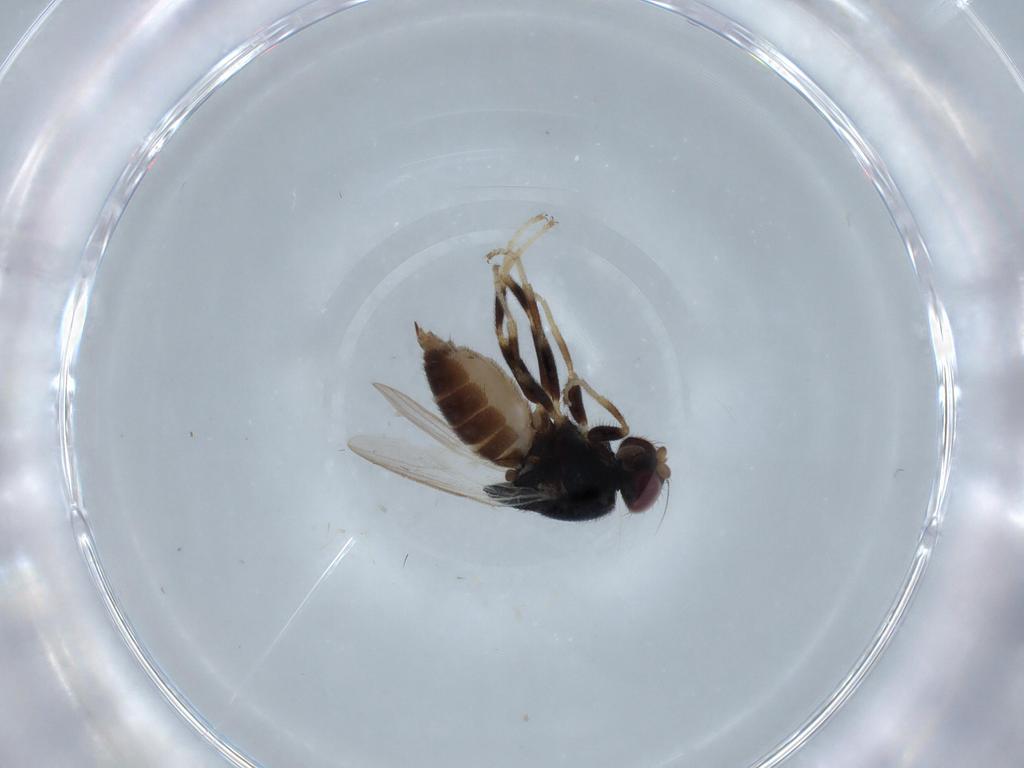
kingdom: Animalia
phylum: Arthropoda
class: Insecta
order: Diptera
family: Chloropidae
